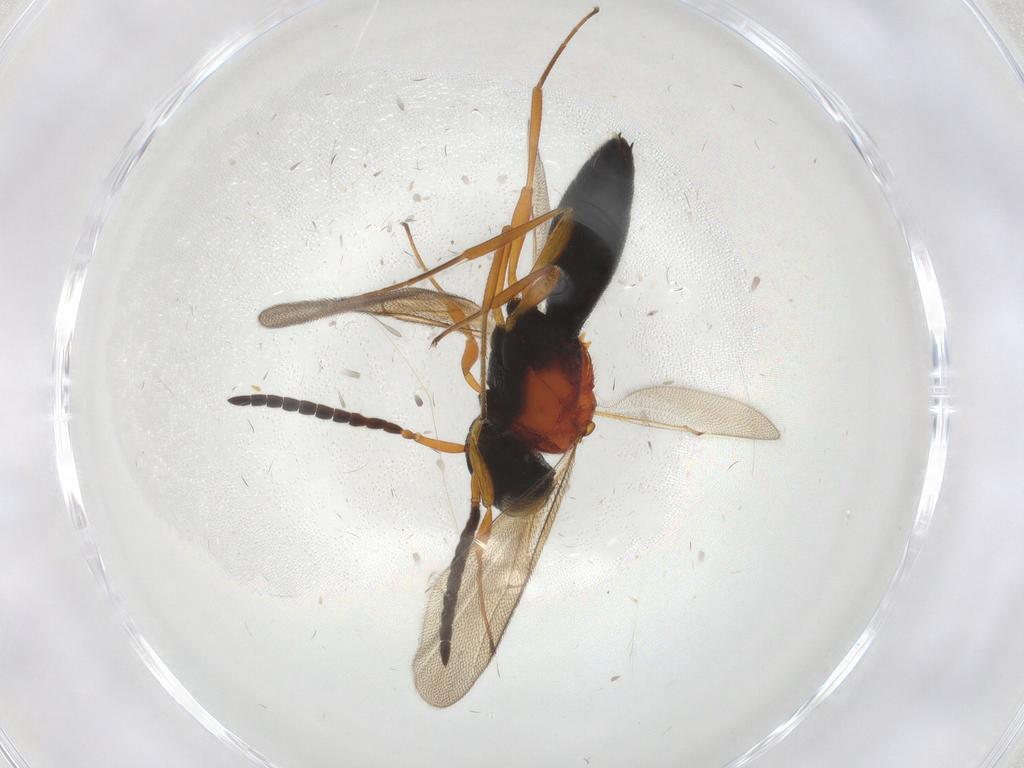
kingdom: Animalia
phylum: Arthropoda
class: Insecta
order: Hymenoptera
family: Scelionidae
